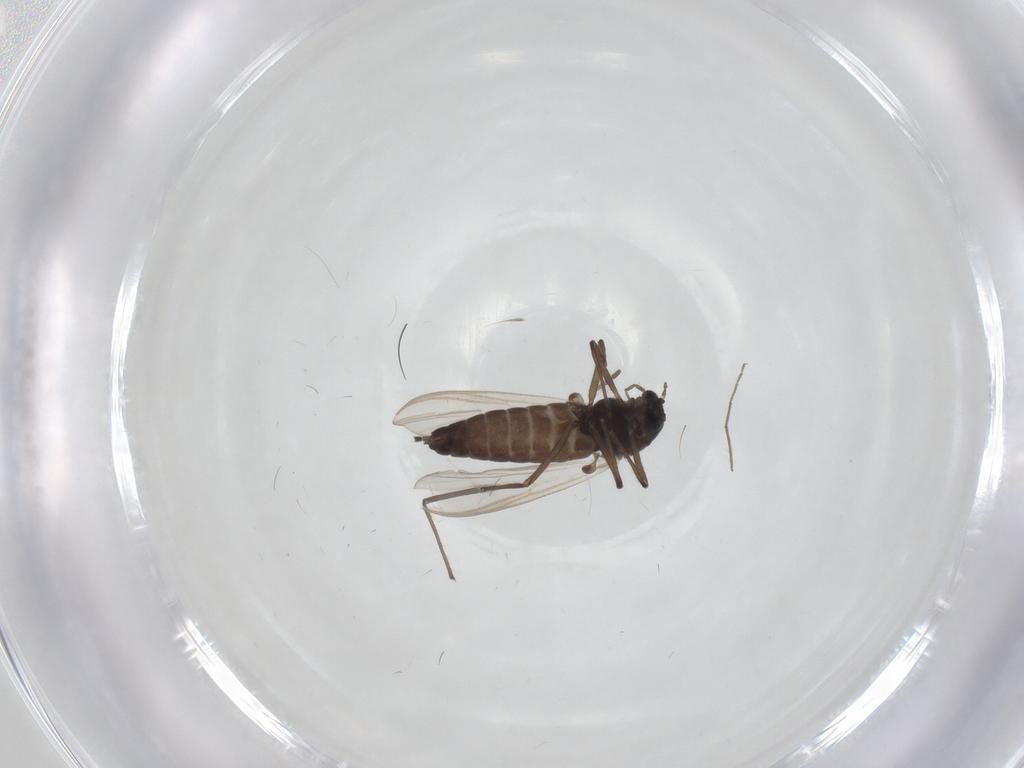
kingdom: Animalia
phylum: Arthropoda
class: Insecta
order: Diptera
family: Sciaridae
